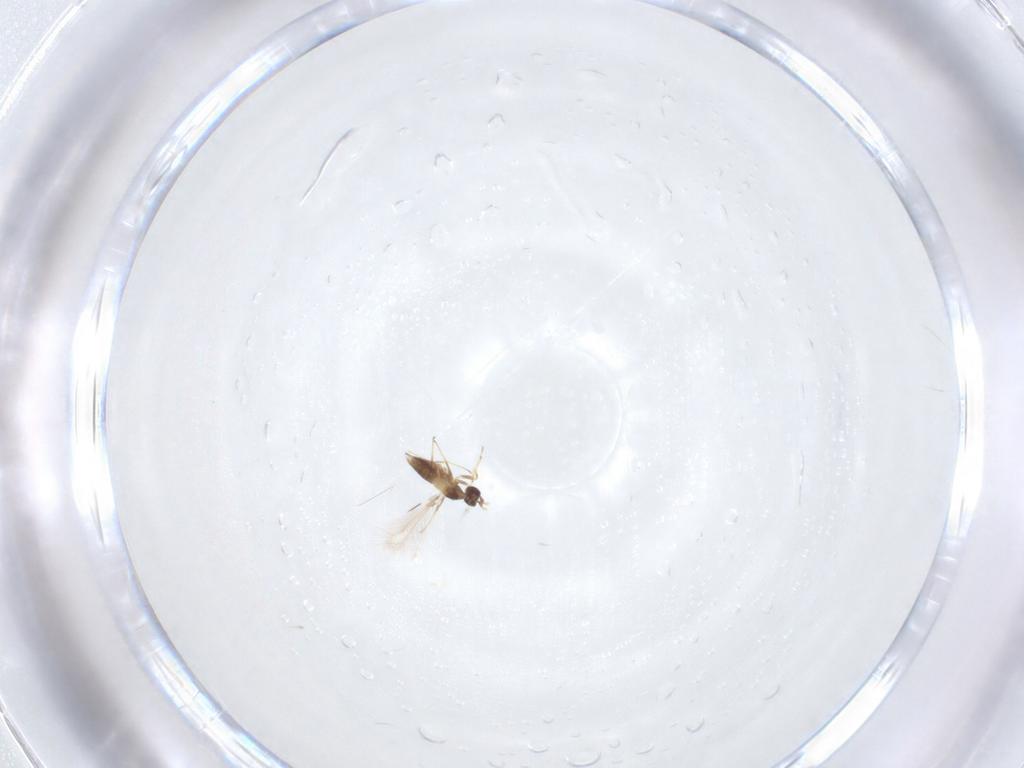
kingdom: Animalia
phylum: Arthropoda
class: Insecta
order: Hymenoptera
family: Mymaridae
